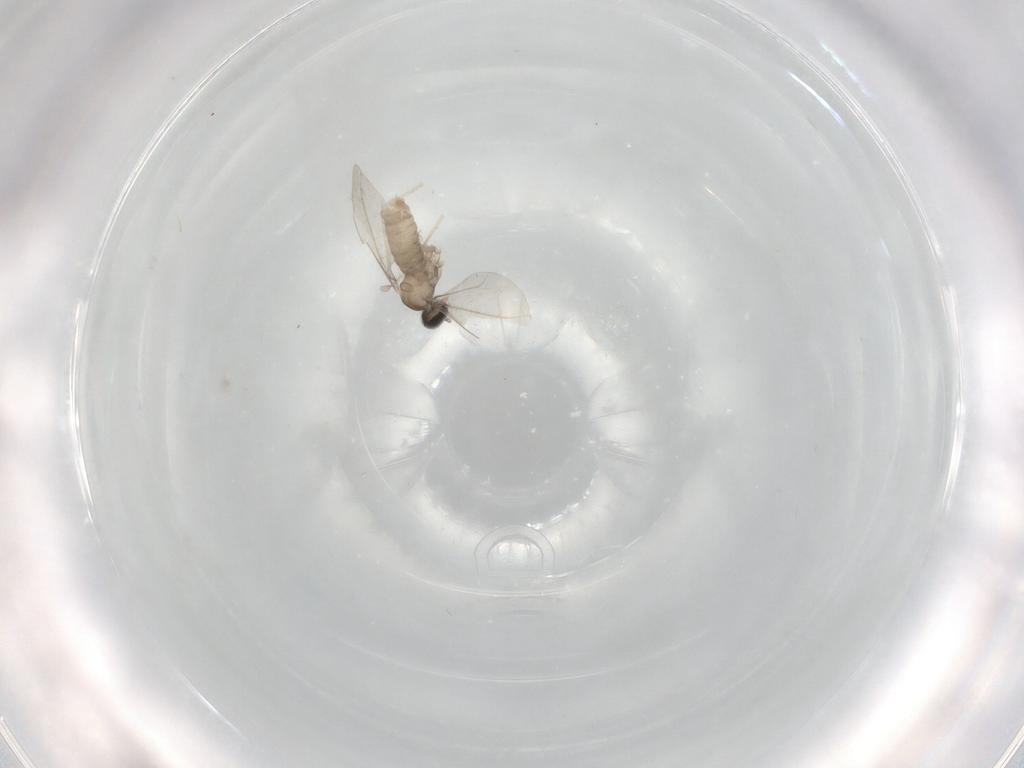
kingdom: Animalia
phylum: Arthropoda
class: Insecta
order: Diptera
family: Cecidomyiidae
